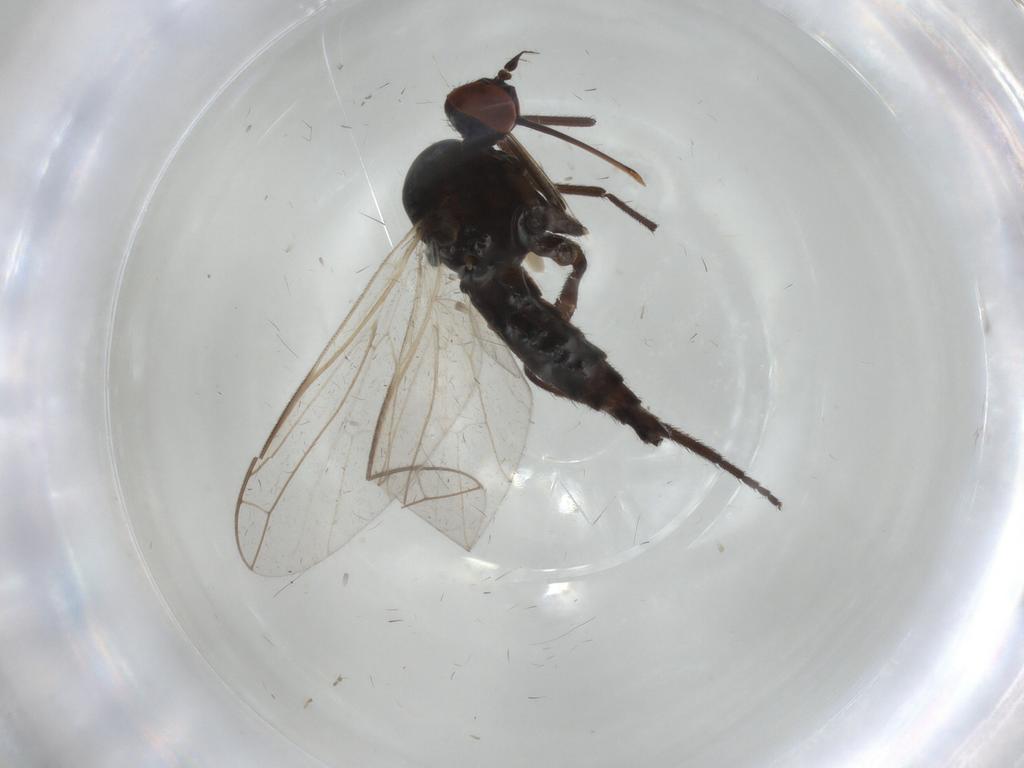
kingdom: Animalia
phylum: Arthropoda
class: Insecta
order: Diptera
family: Empididae
